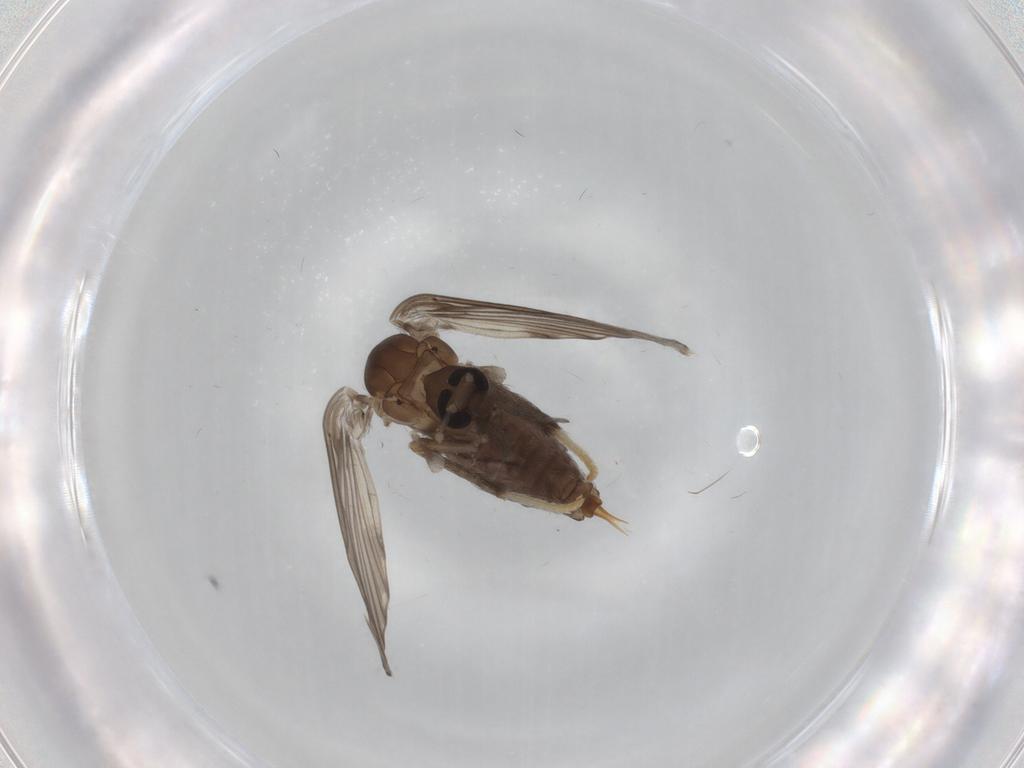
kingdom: Animalia
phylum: Arthropoda
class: Insecta
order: Diptera
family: Psychodidae
